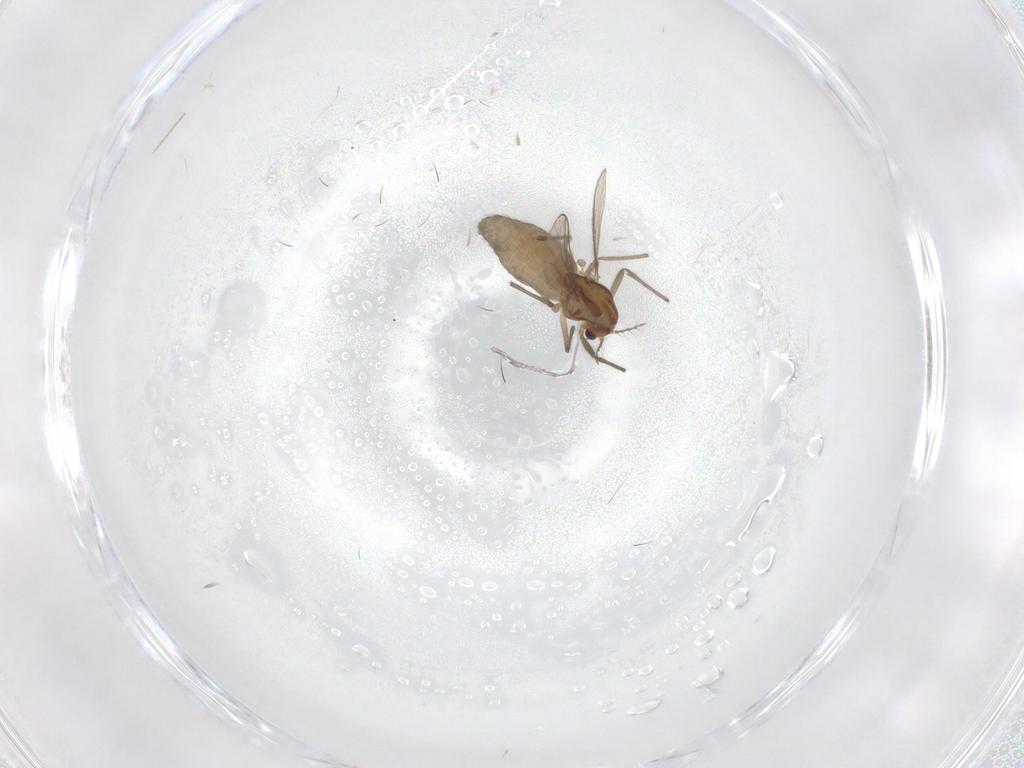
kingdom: Animalia
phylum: Arthropoda
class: Insecta
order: Diptera
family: Chironomidae
